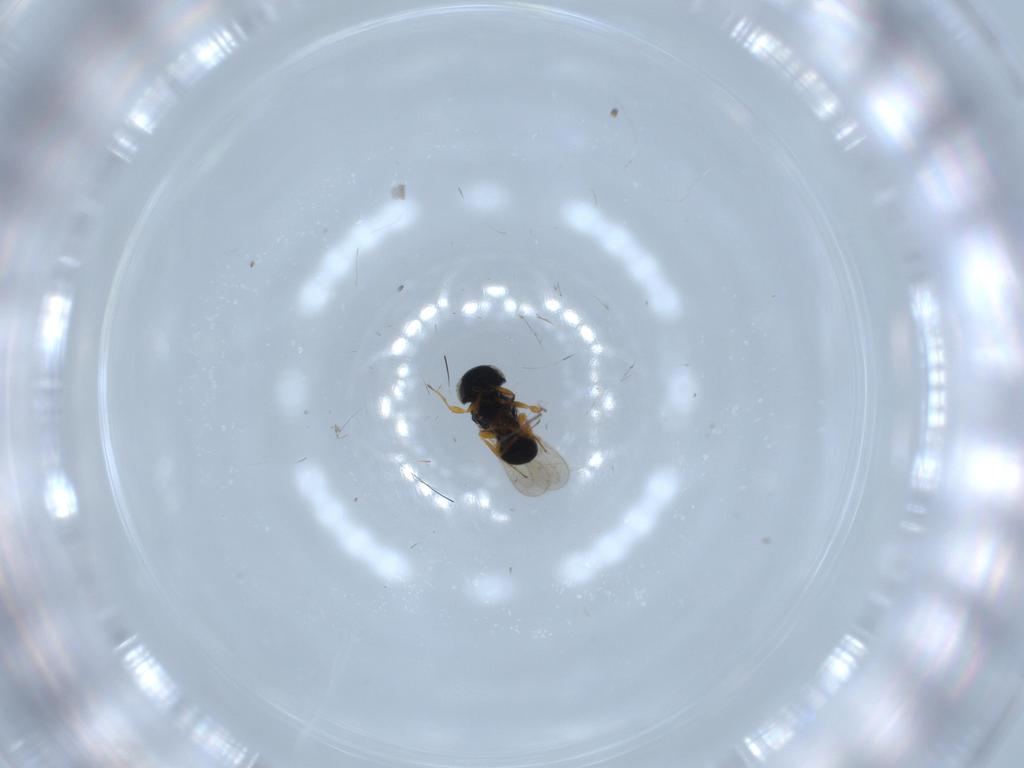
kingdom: Animalia
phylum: Arthropoda
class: Insecta
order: Hymenoptera
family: Scelionidae
